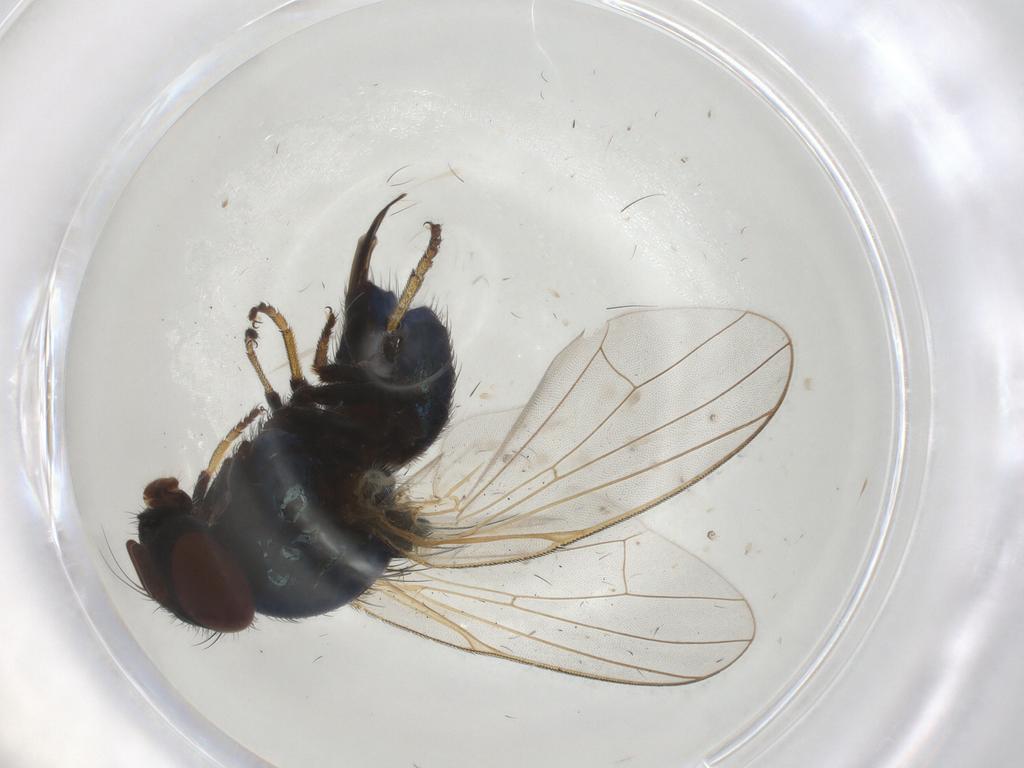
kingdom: Animalia
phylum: Arthropoda
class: Insecta
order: Diptera
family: Lonchaeidae
